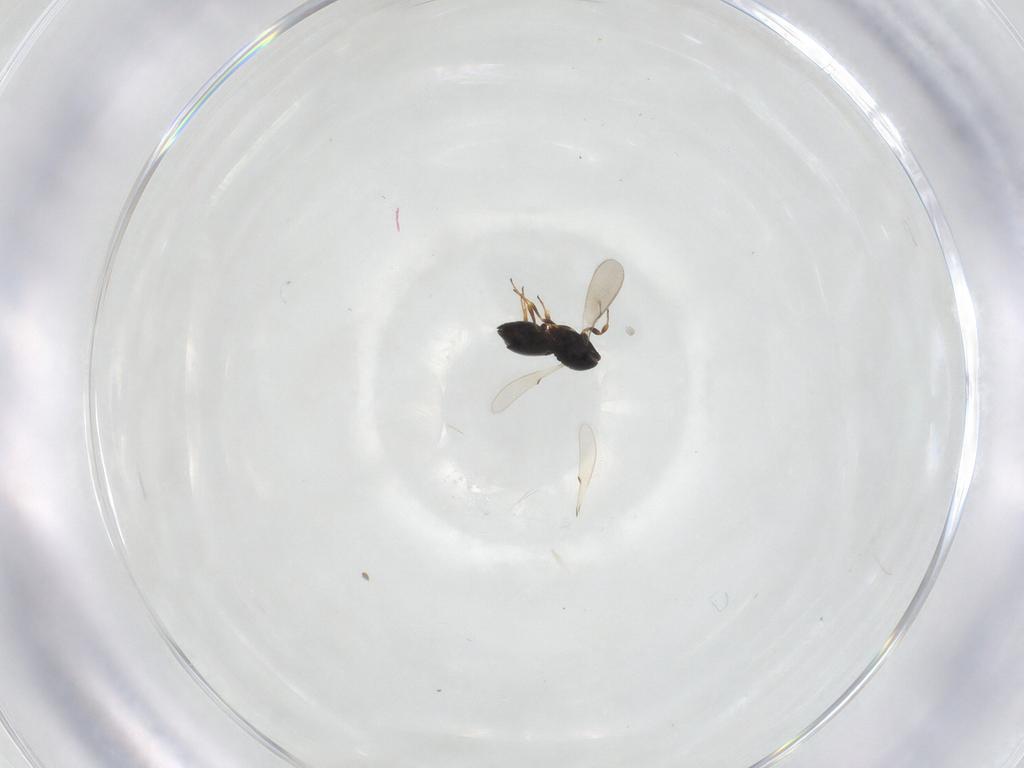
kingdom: Animalia
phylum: Arthropoda
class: Insecta
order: Hymenoptera
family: Scelionidae
